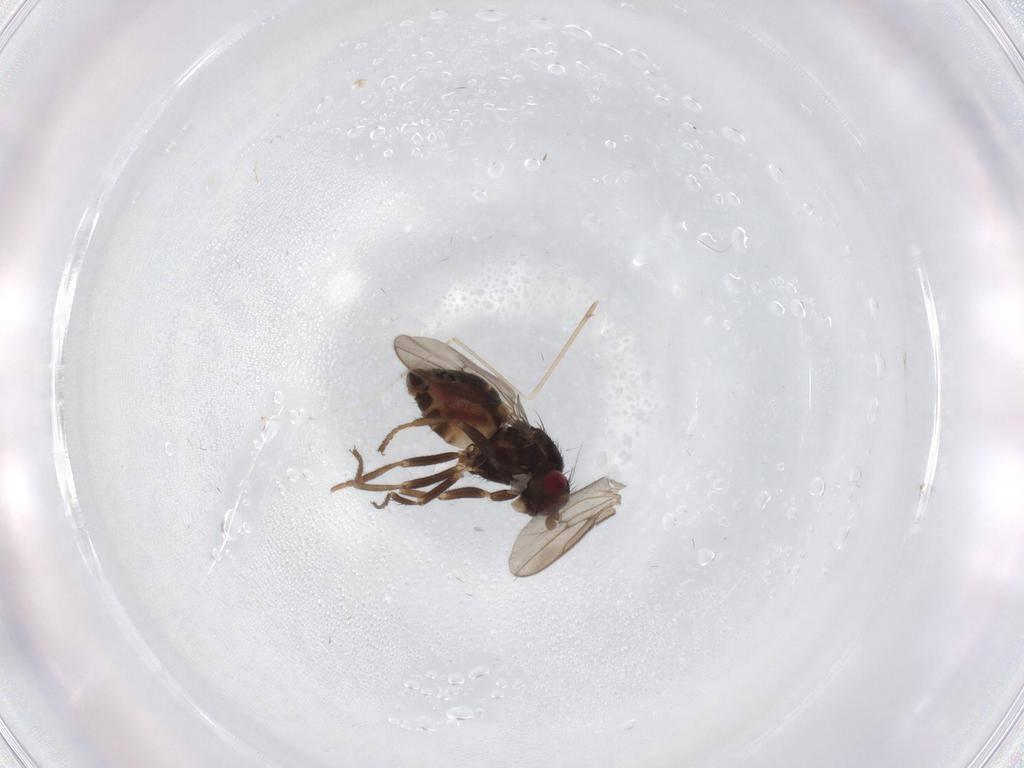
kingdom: Animalia
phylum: Arthropoda
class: Insecta
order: Diptera
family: Sphaeroceridae
